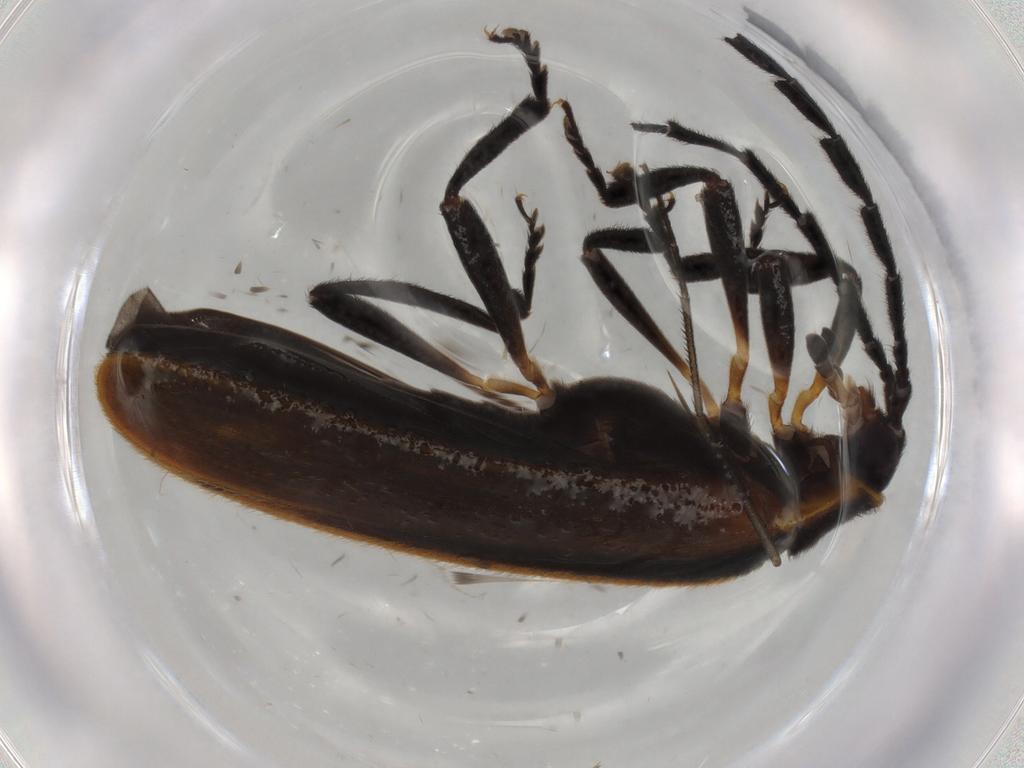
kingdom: Animalia
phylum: Arthropoda
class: Insecta
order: Coleoptera
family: Lycidae
